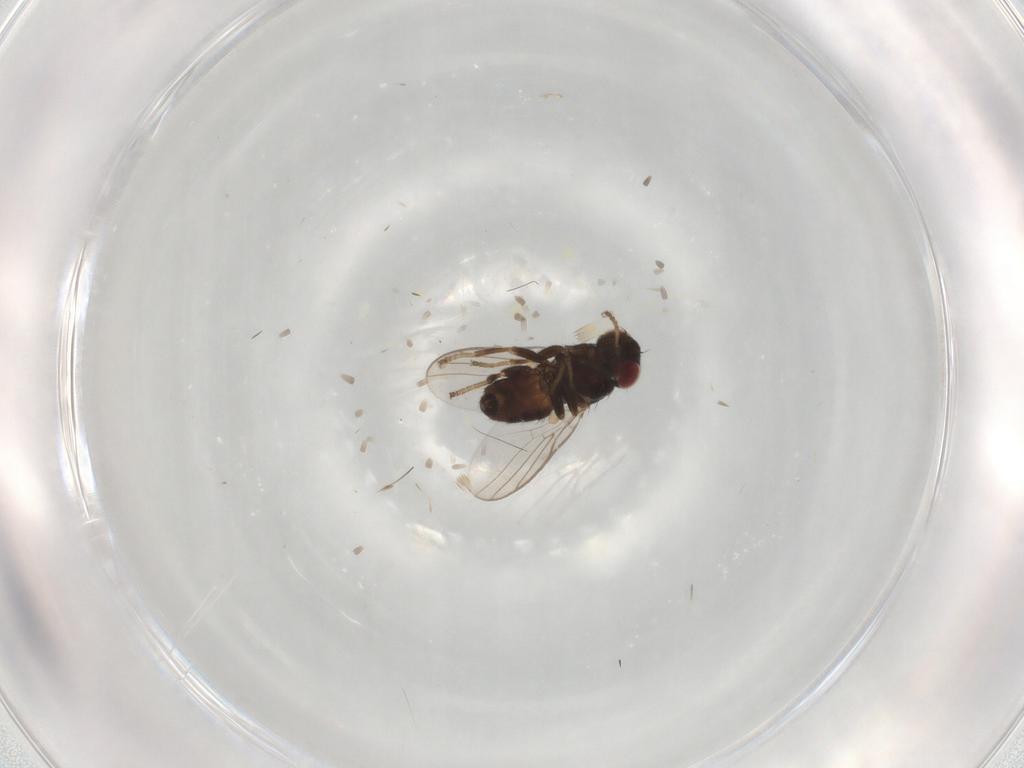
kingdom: Animalia
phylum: Arthropoda
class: Insecta
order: Diptera
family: Chloropidae
